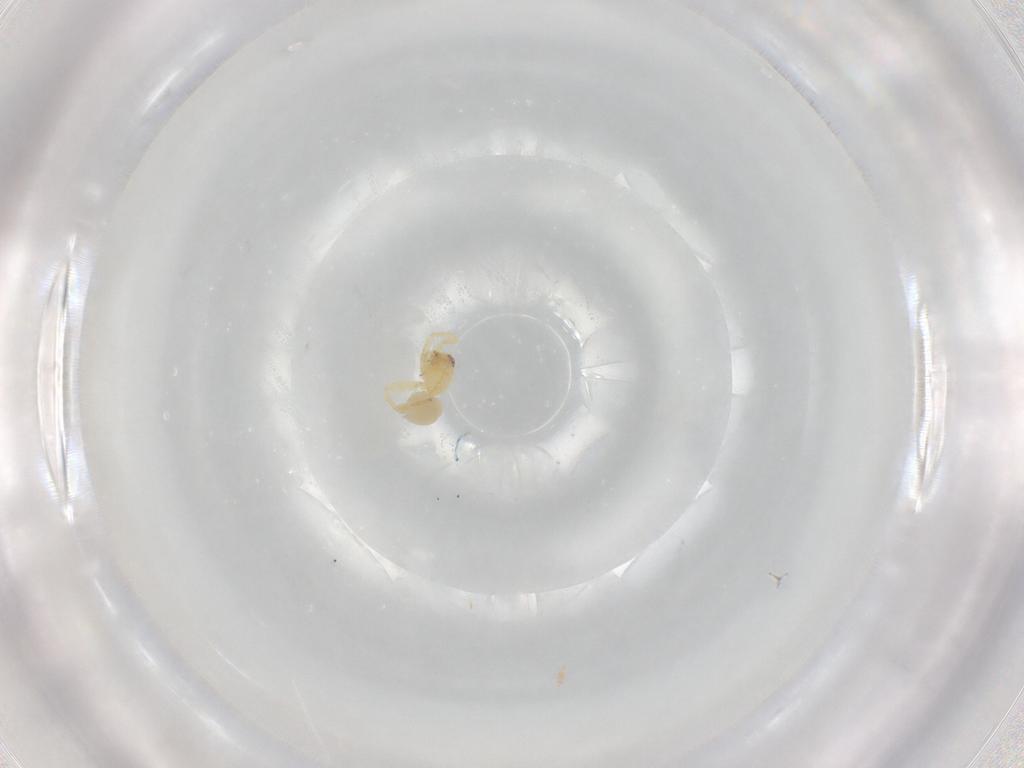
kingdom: Animalia
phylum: Arthropoda
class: Arachnida
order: Araneae
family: Oonopidae
